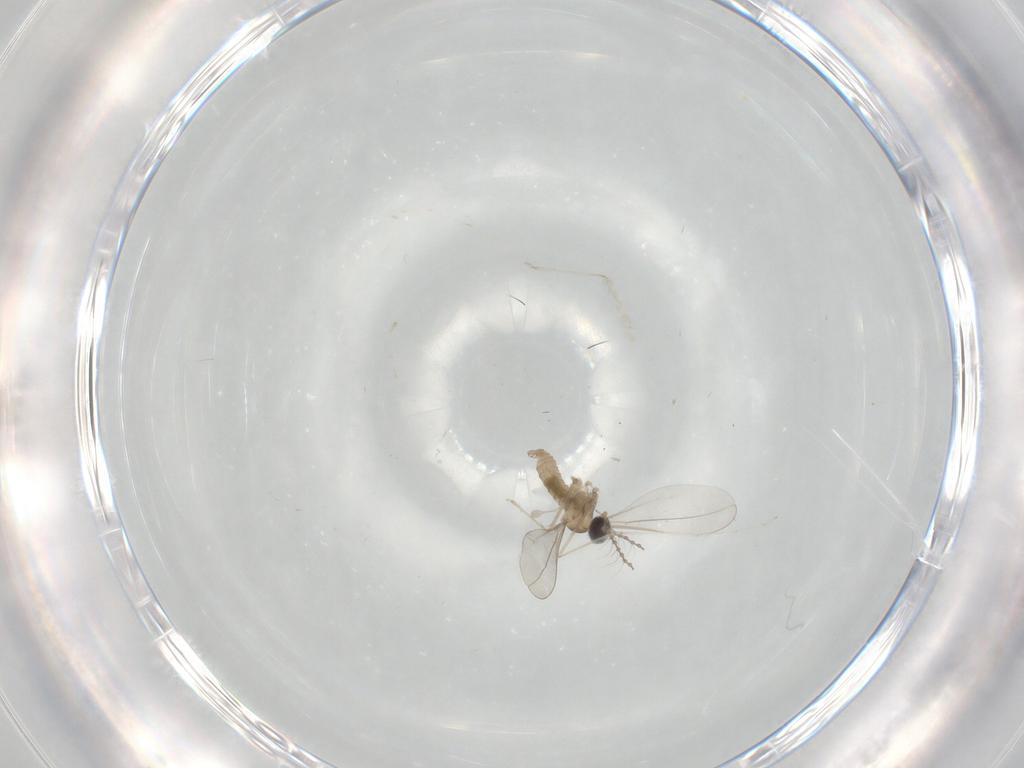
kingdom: Animalia
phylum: Arthropoda
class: Insecta
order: Diptera
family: Cecidomyiidae
